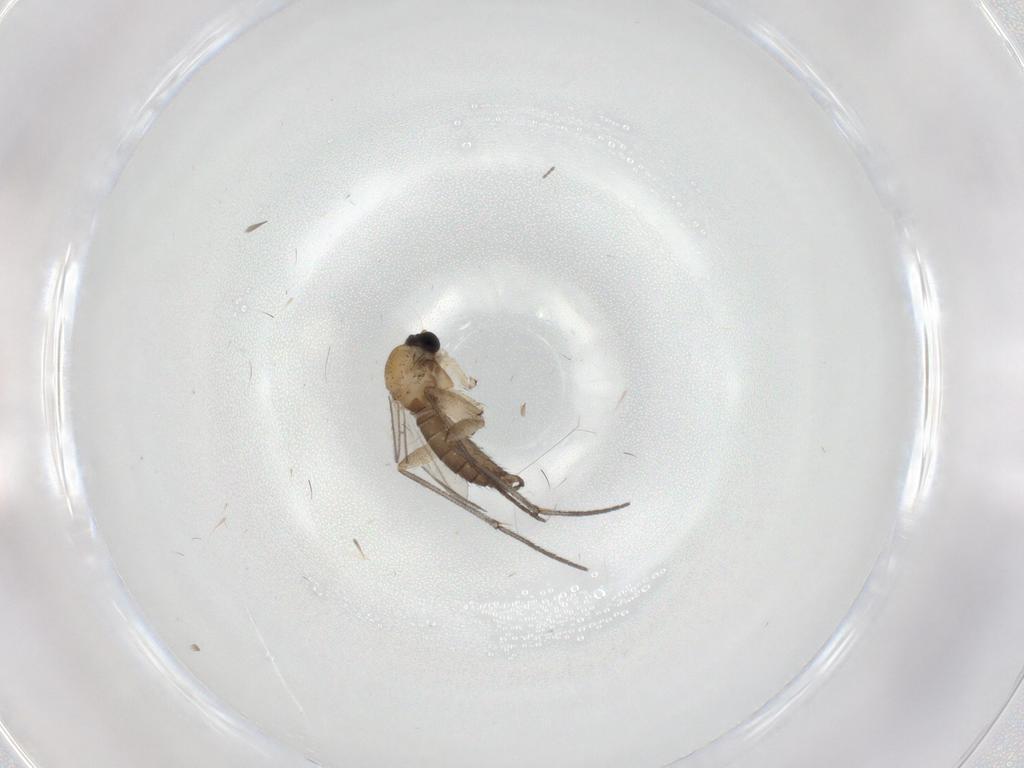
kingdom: Animalia
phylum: Arthropoda
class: Insecta
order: Diptera
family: Sciaridae
